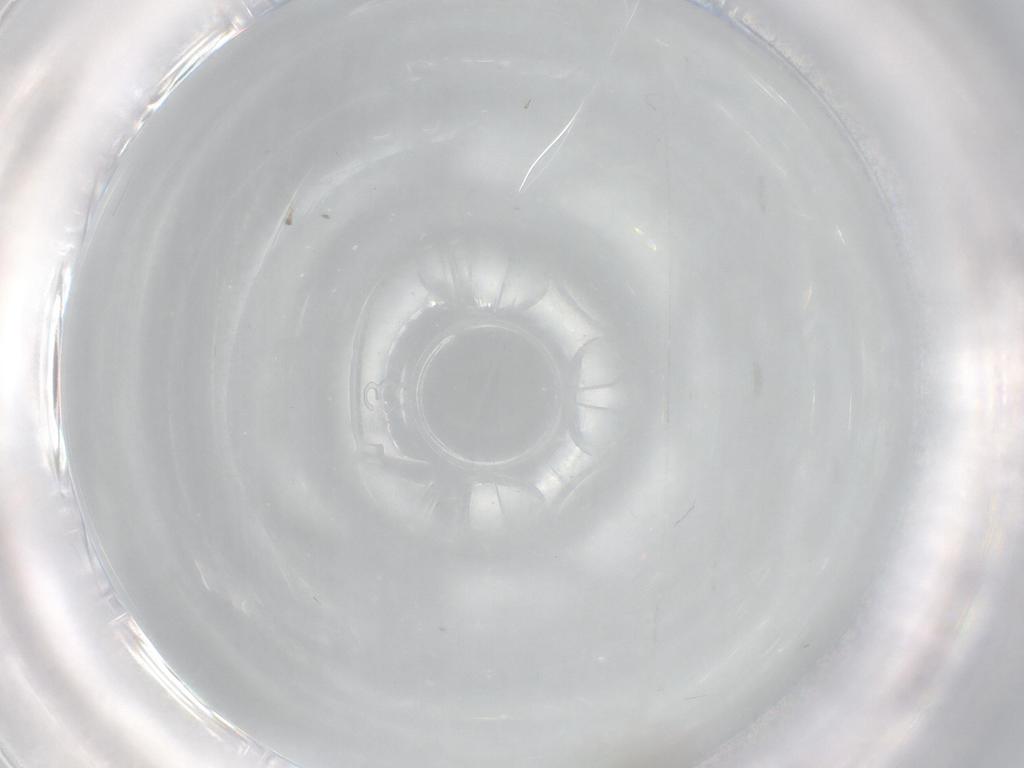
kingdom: Animalia
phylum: Arthropoda
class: Insecta
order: Diptera
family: Cecidomyiidae
